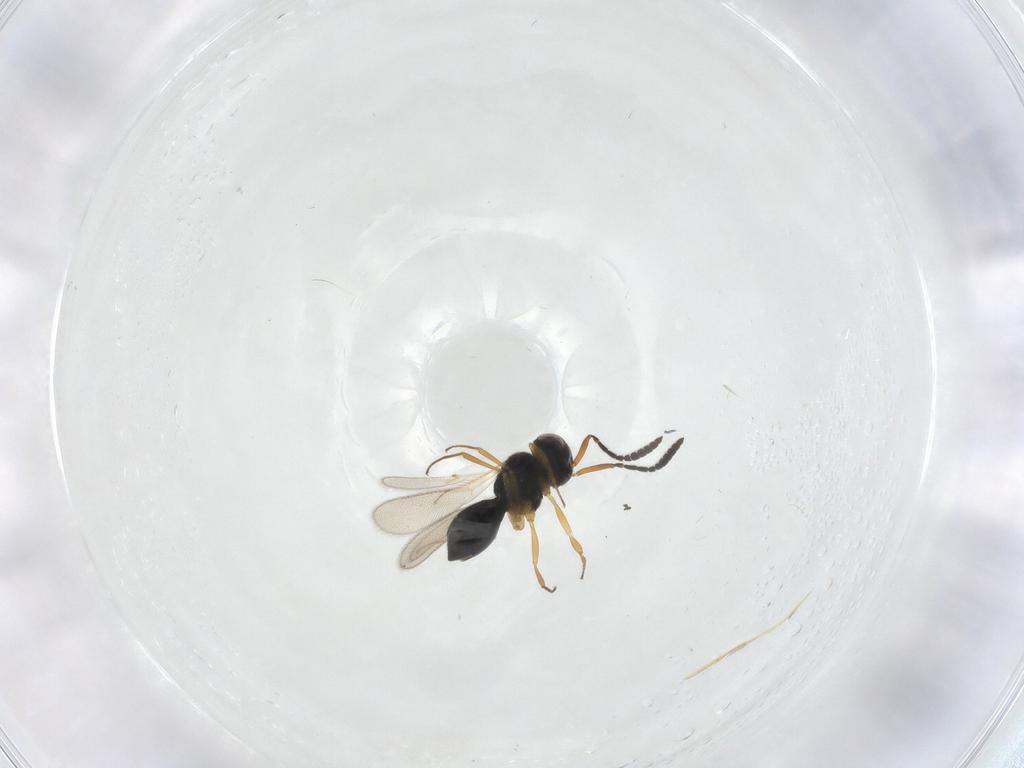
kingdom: Animalia
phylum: Arthropoda
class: Insecta
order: Hymenoptera
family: Scelionidae
